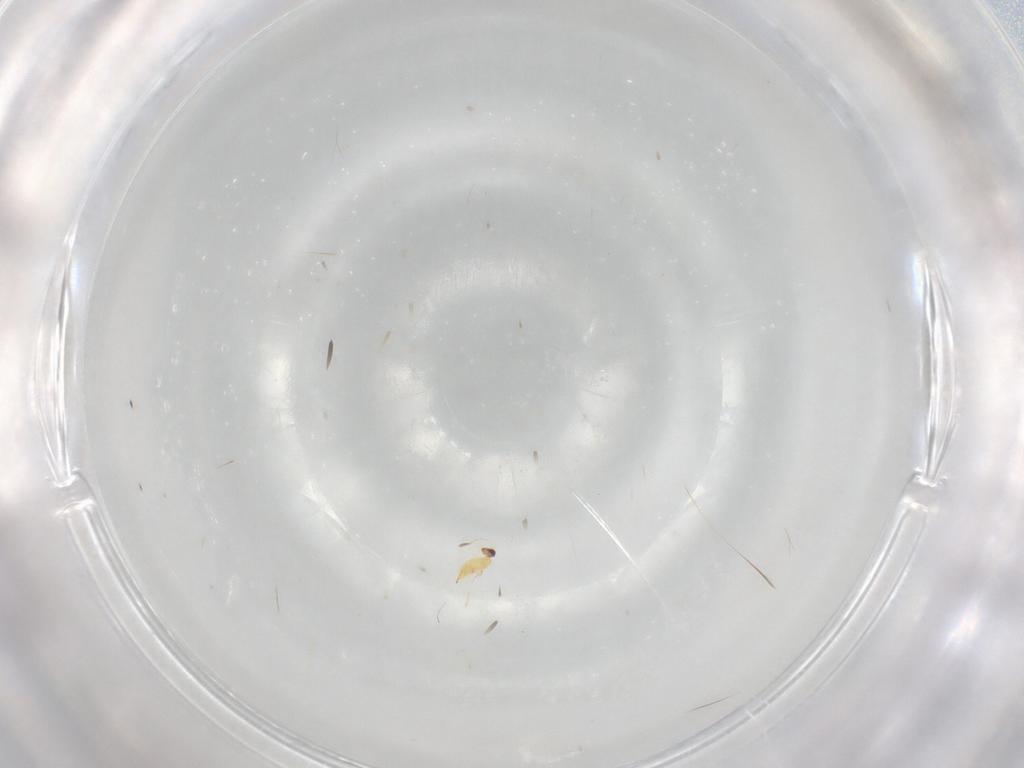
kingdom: Animalia
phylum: Arthropoda
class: Insecta
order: Hymenoptera
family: Mymaridae
